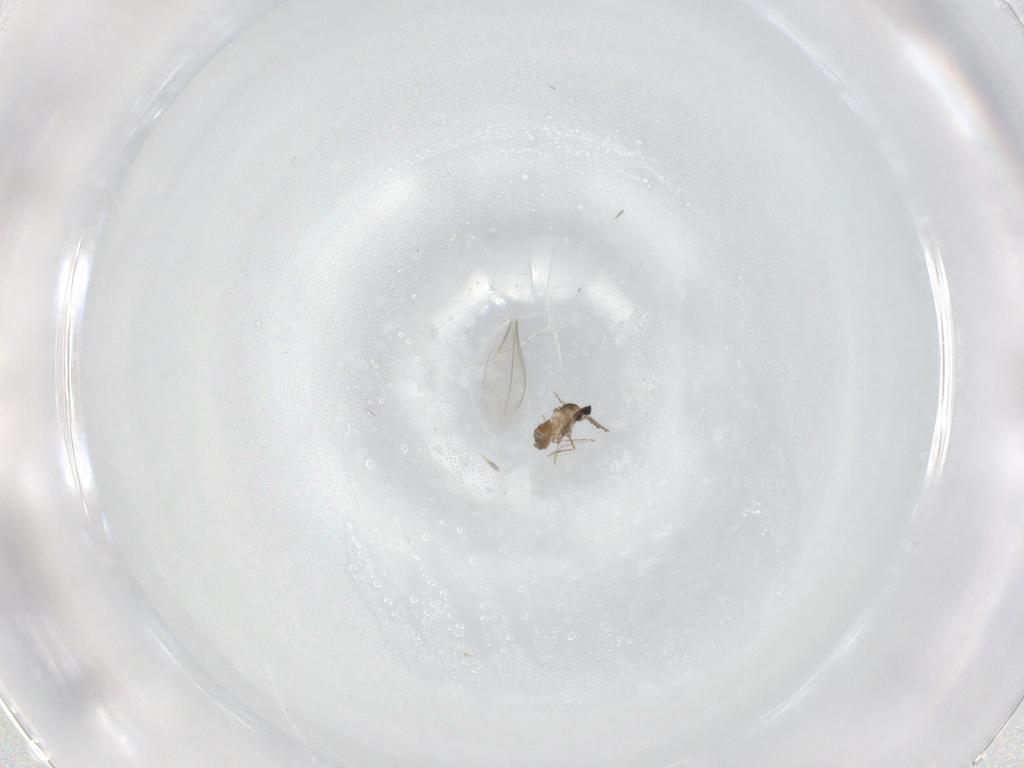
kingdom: Animalia
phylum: Arthropoda
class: Insecta
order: Diptera
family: Cecidomyiidae
